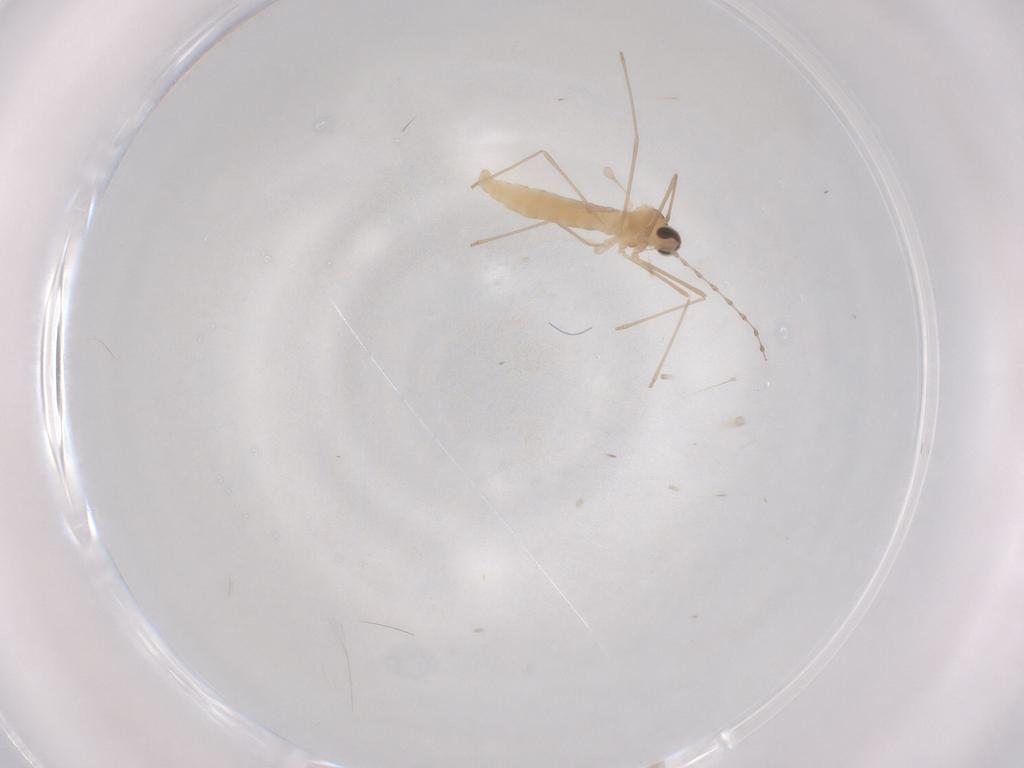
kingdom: Animalia
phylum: Arthropoda
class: Insecta
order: Diptera
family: Cecidomyiidae
